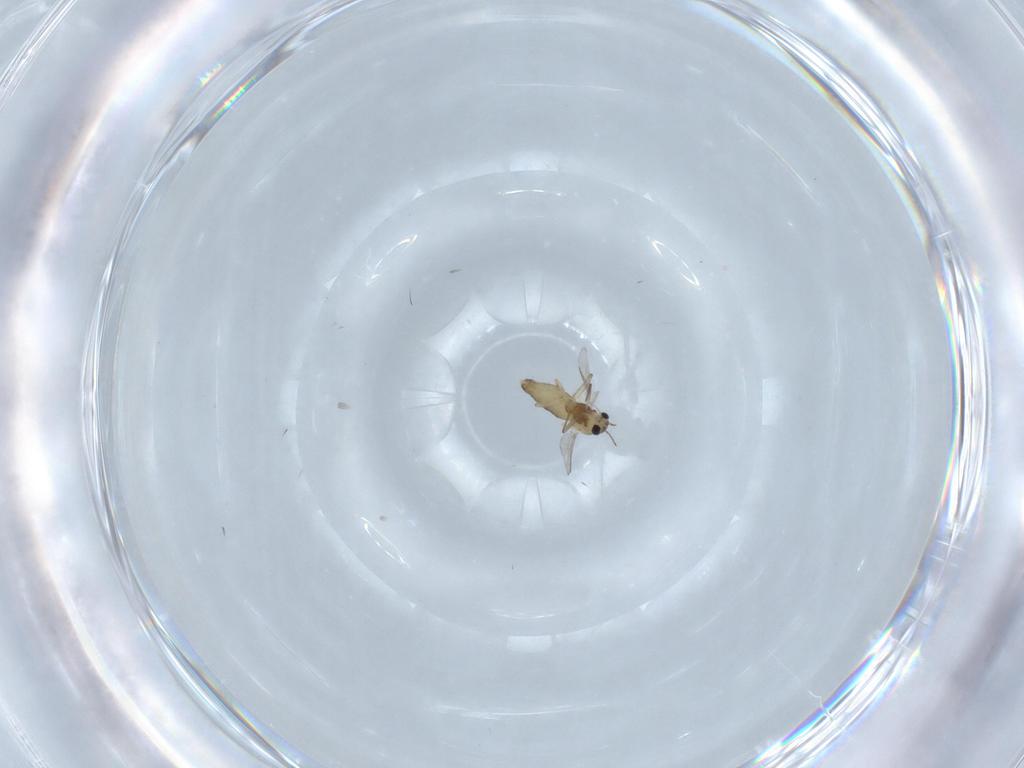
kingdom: Animalia
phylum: Arthropoda
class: Insecta
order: Diptera
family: Chironomidae
